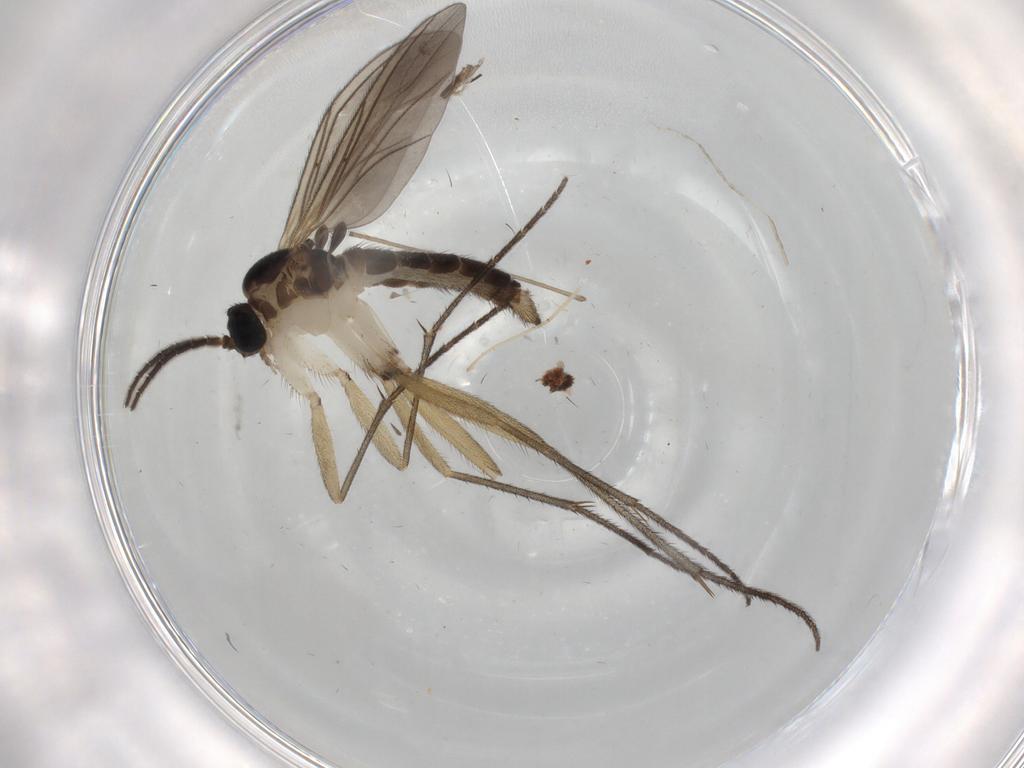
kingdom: Animalia
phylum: Arthropoda
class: Insecta
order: Diptera
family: Sciaridae
